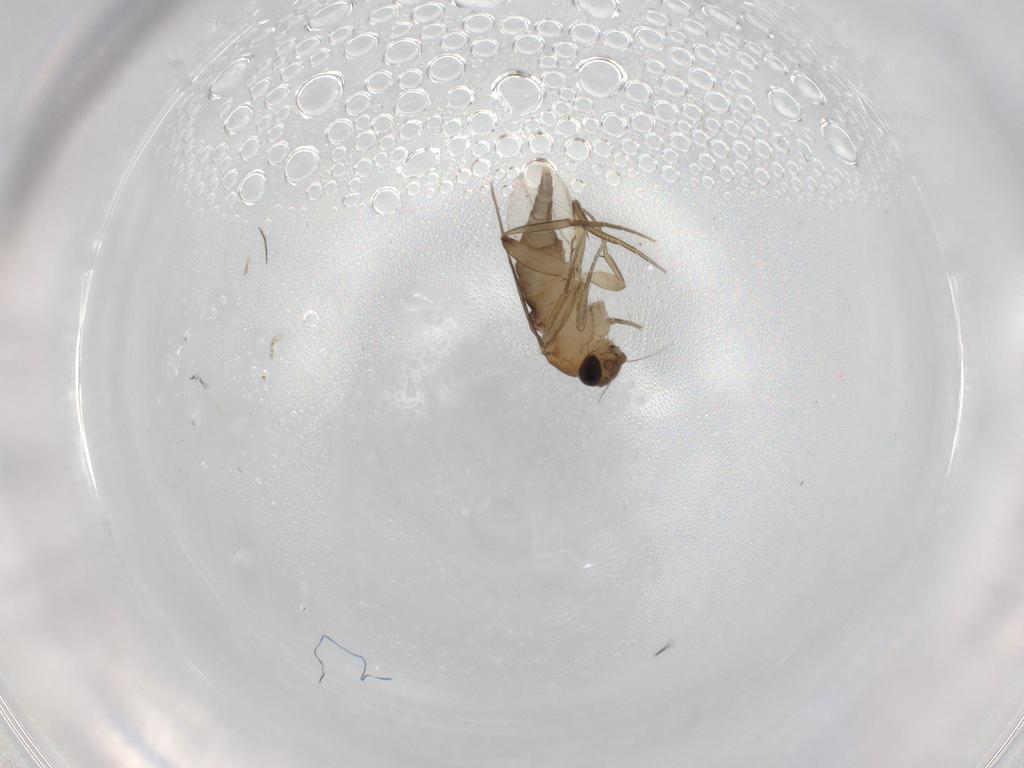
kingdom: Animalia
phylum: Arthropoda
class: Insecta
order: Diptera
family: Phoridae
